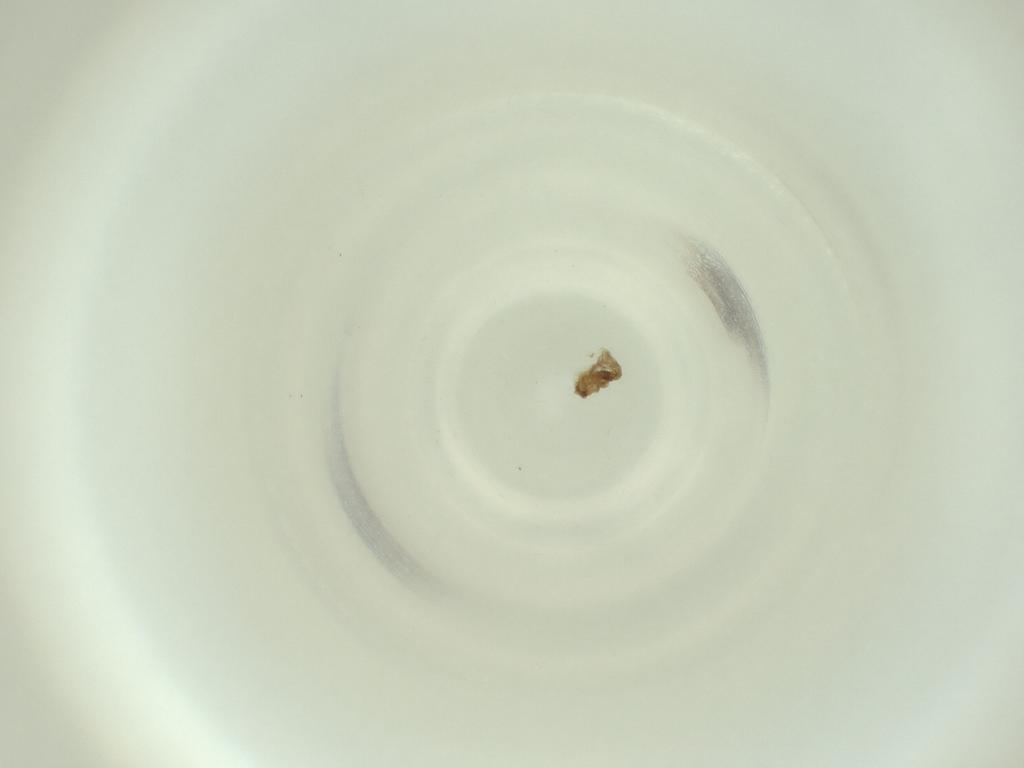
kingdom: Animalia
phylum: Arthropoda
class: Insecta
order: Diptera
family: Cecidomyiidae
